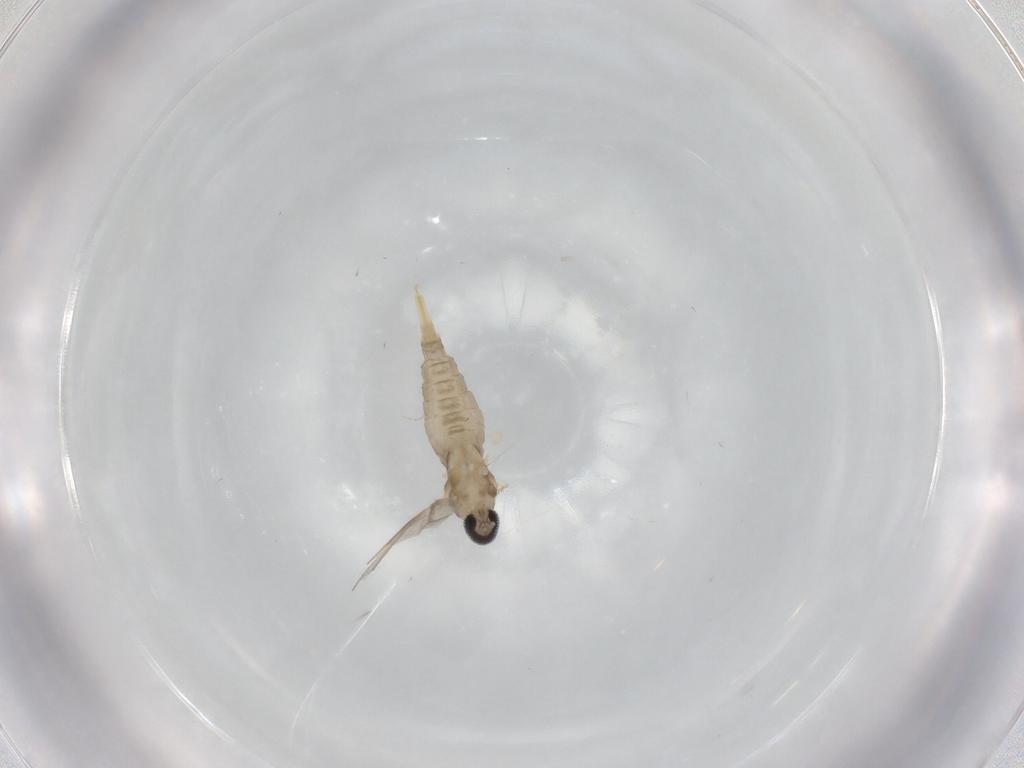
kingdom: Animalia
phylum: Arthropoda
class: Insecta
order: Diptera
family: Cecidomyiidae
